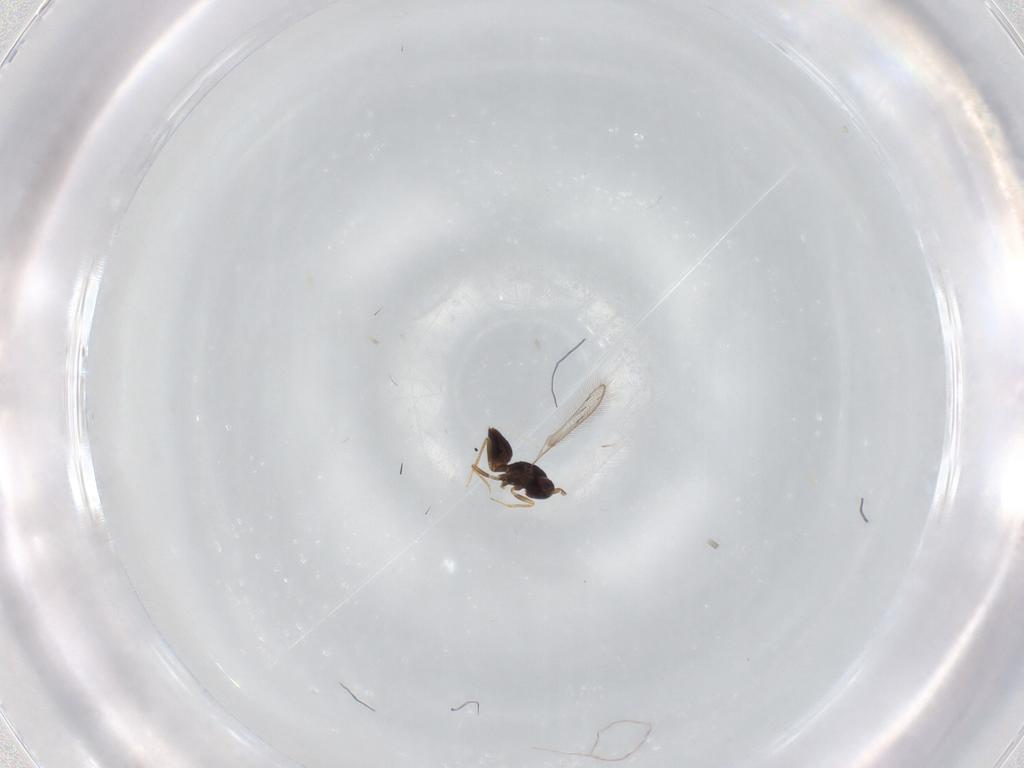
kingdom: Animalia
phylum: Arthropoda
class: Insecta
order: Hymenoptera
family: Mymaridae
